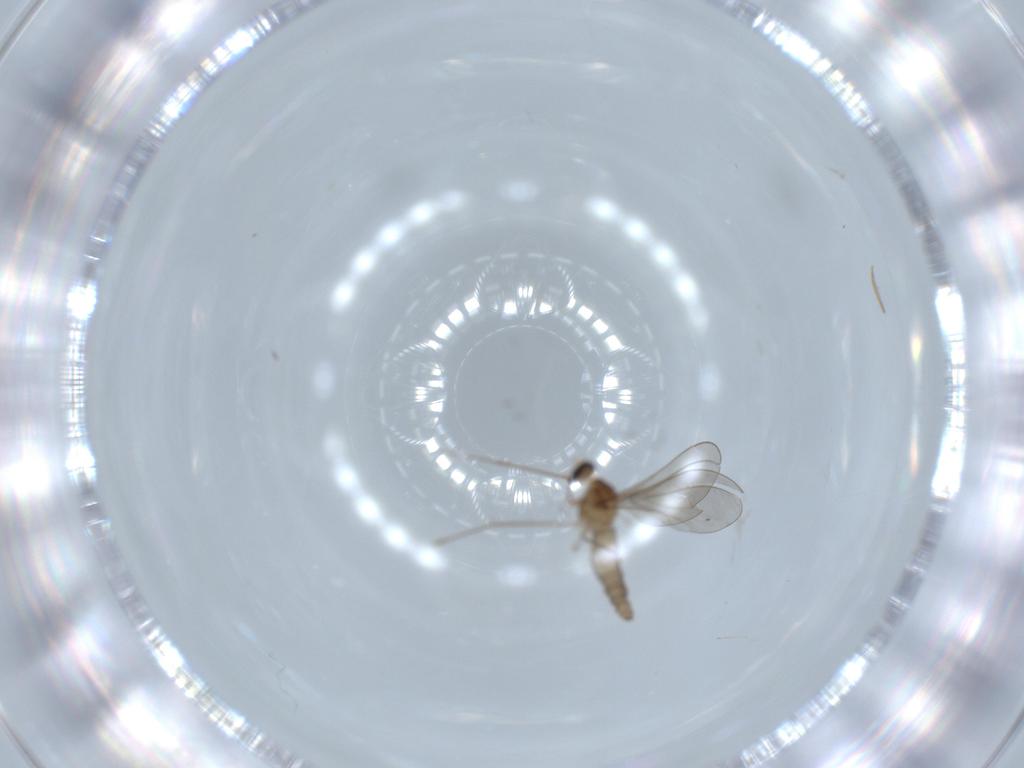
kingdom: Animalia
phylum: Arthropoda
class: Insecta
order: Diptera
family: Cecidomyiidae
